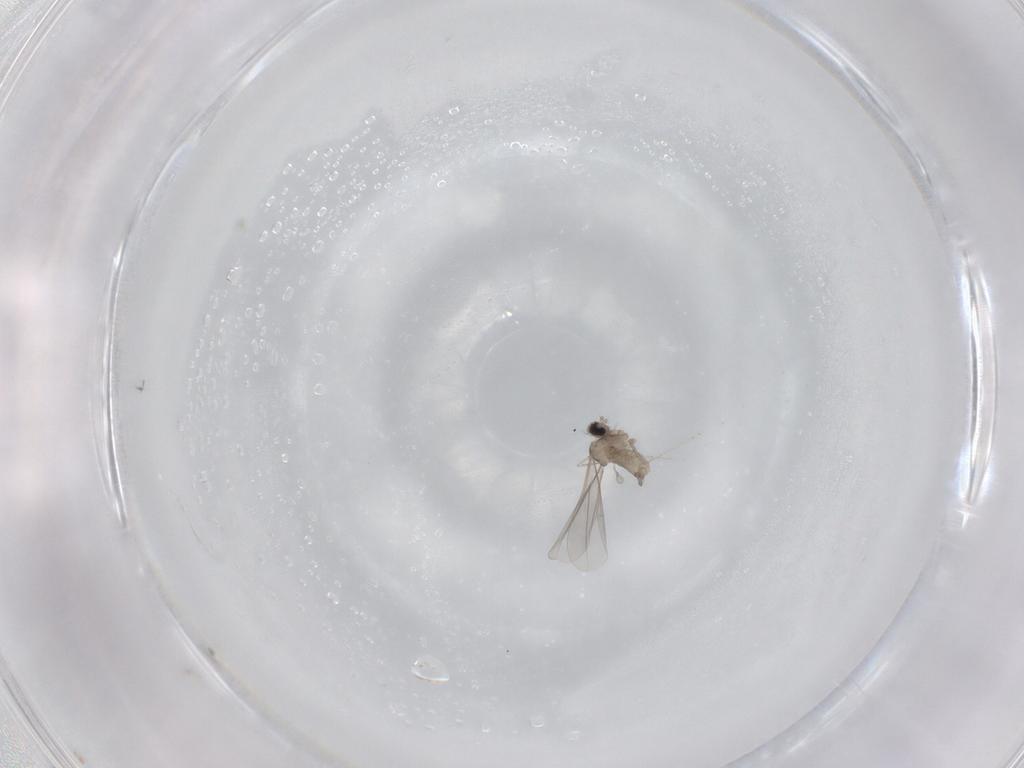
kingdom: Animalia
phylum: Arthropoda
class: Insecta
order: Diptera
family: Cecidomyiidae
